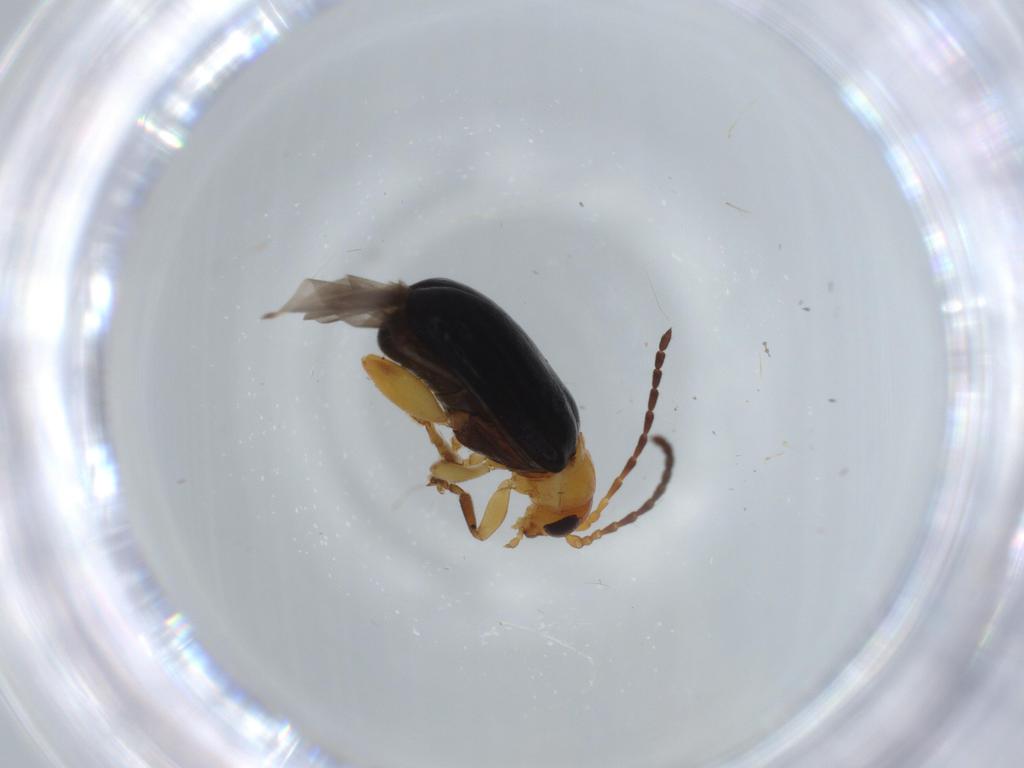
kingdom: Animalia
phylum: Arthropoda
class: Insecta
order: Coleoptera
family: Chrysomelidae
